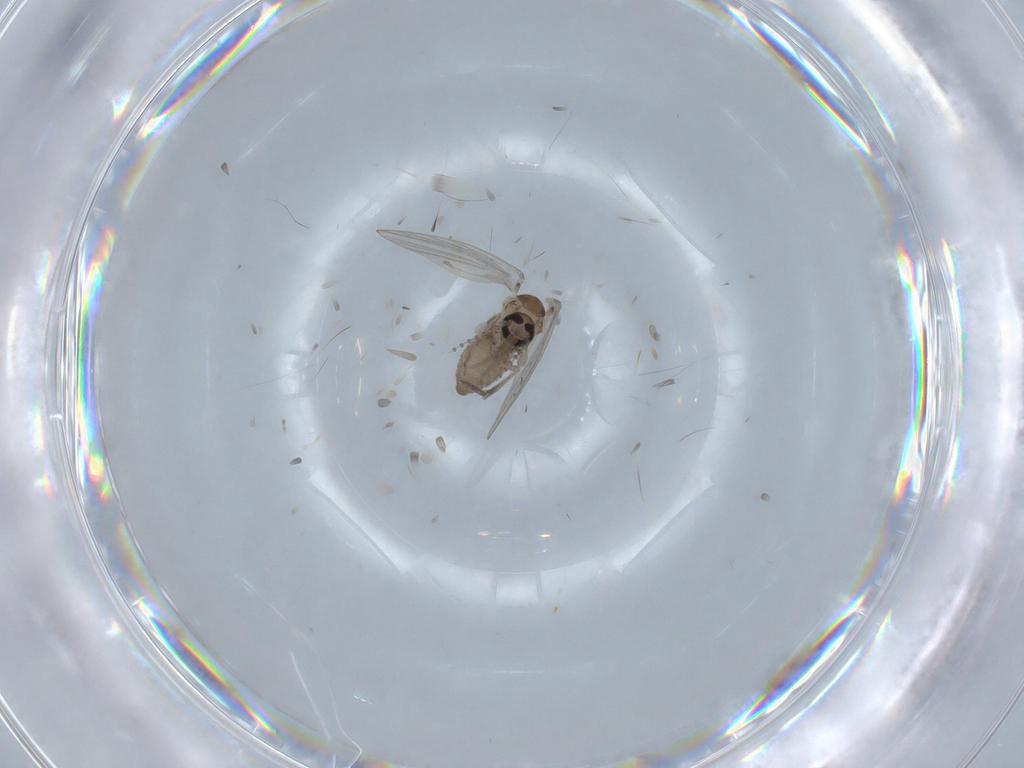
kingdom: Animalia
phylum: Arthropoda
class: Insecta
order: Diptera
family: Psychodidae
